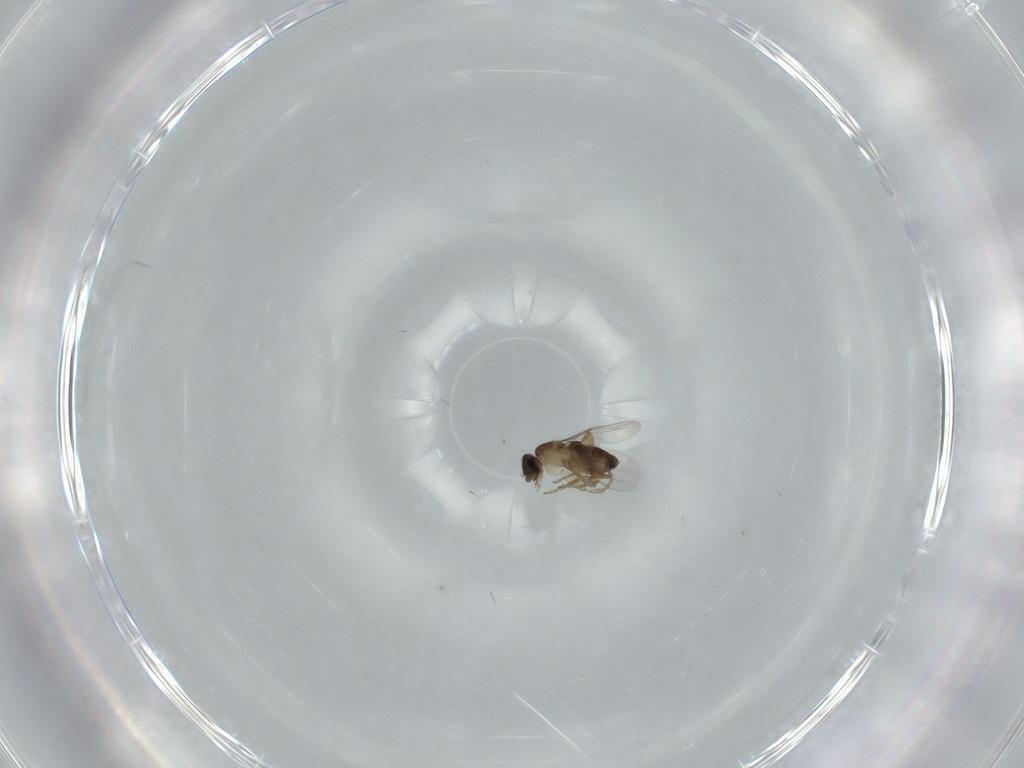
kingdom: Animalia
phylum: Arthropoda
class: Insecta
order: Diptera
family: Phoridae
